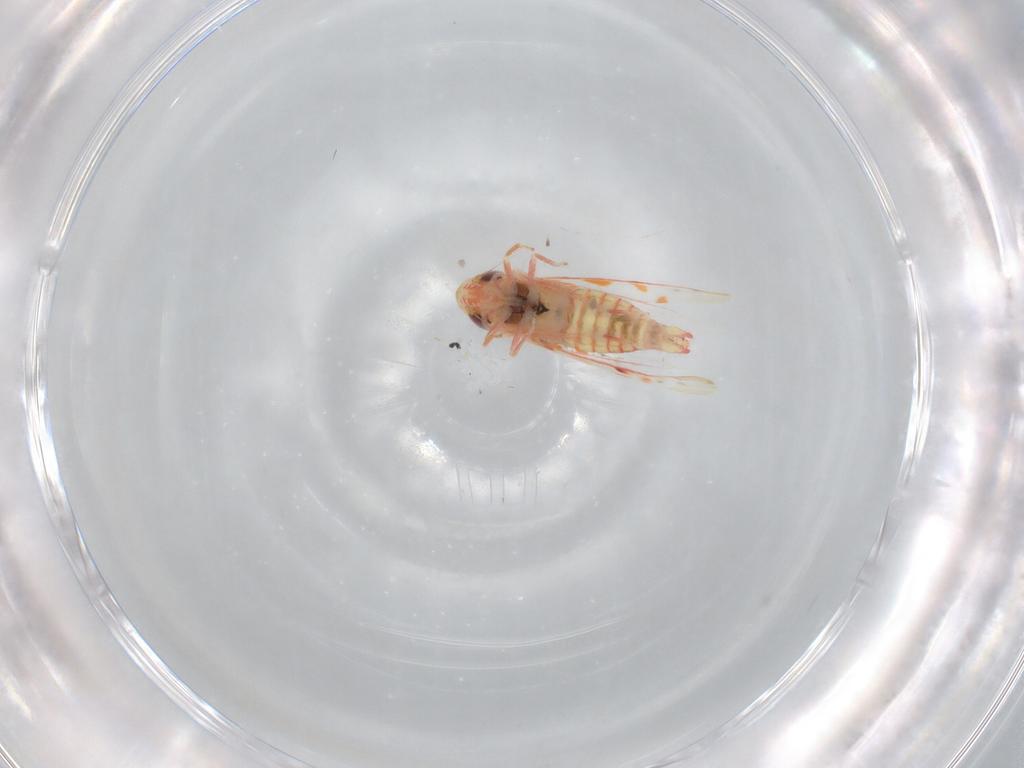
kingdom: Animalia
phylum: Arthropoda
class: Insecta
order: Hemiptera
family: Cicadellidae
